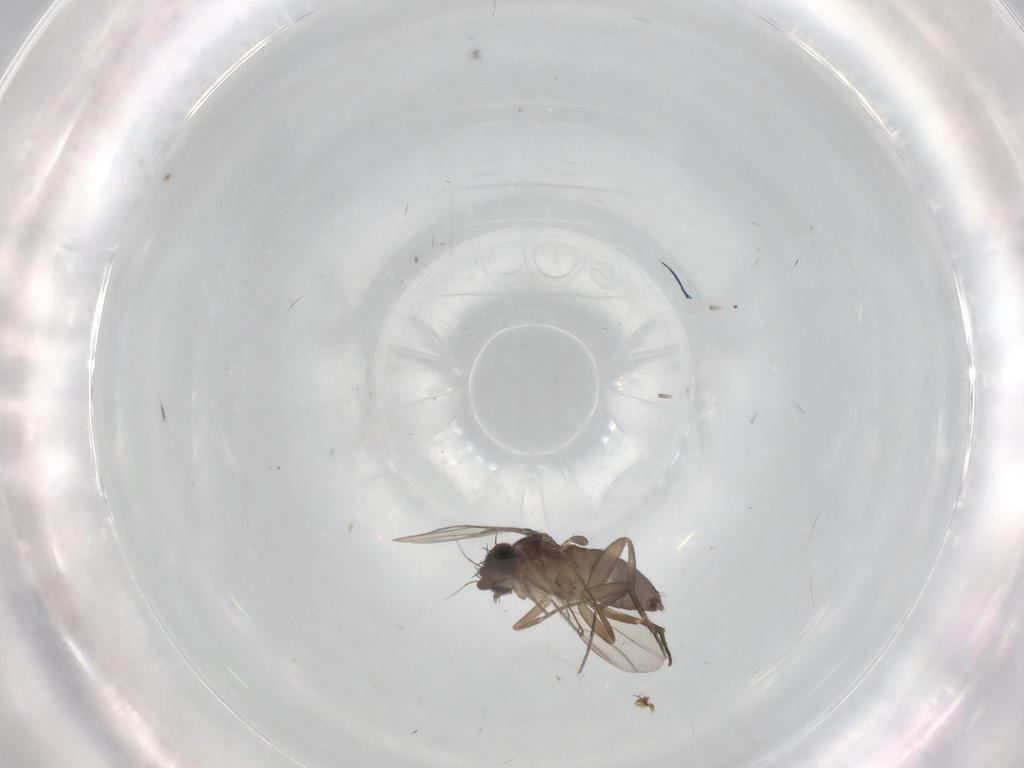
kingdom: Animalia
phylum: Arthropoda
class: Insecta
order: Diptera
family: Phoridae
